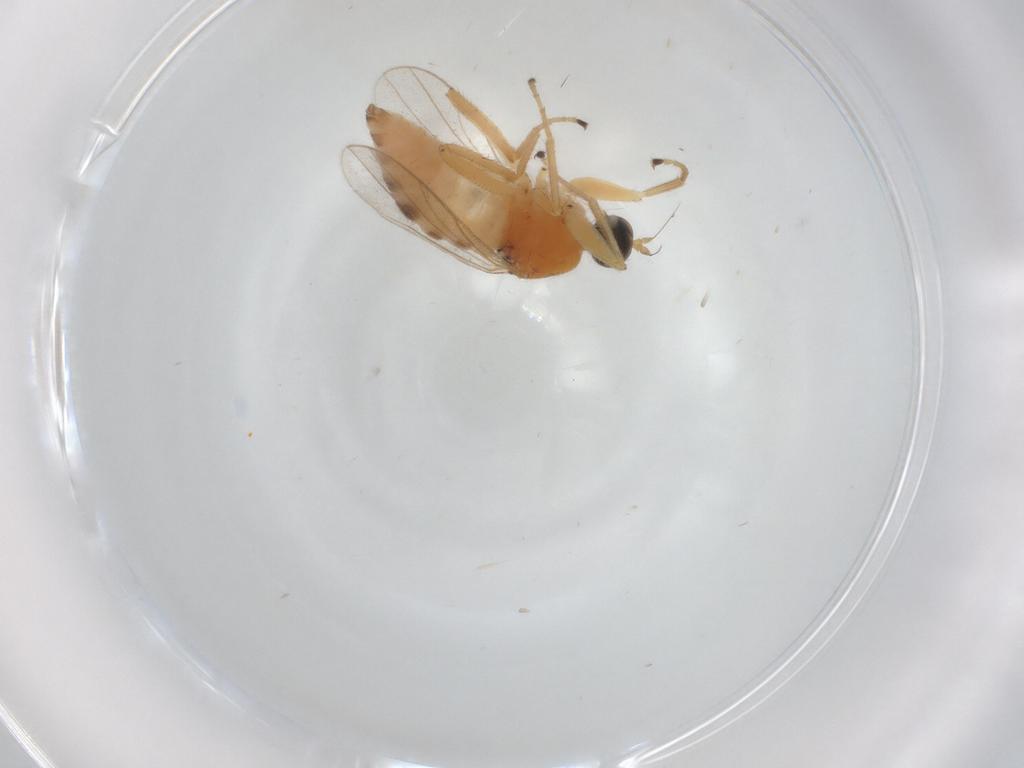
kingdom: Animalia
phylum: Arthropoda
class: Insecta
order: Diptera
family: Hybotidae
